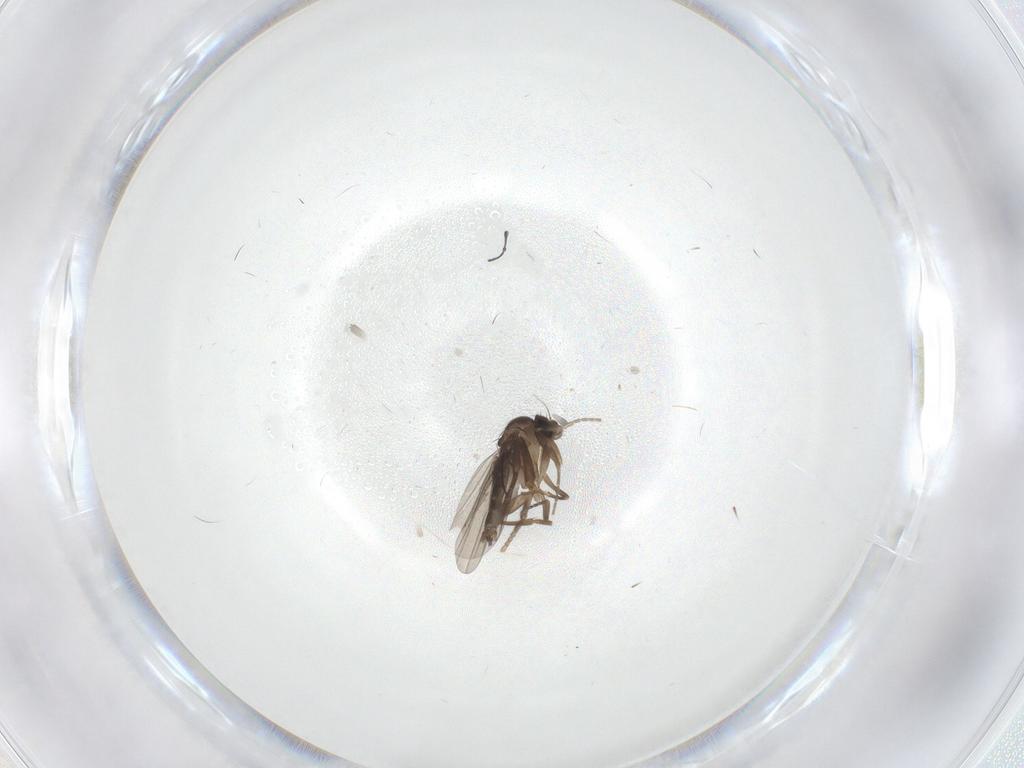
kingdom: Animalia
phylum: Arthropoda
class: Insecta
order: Diptera
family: Psychodidae
